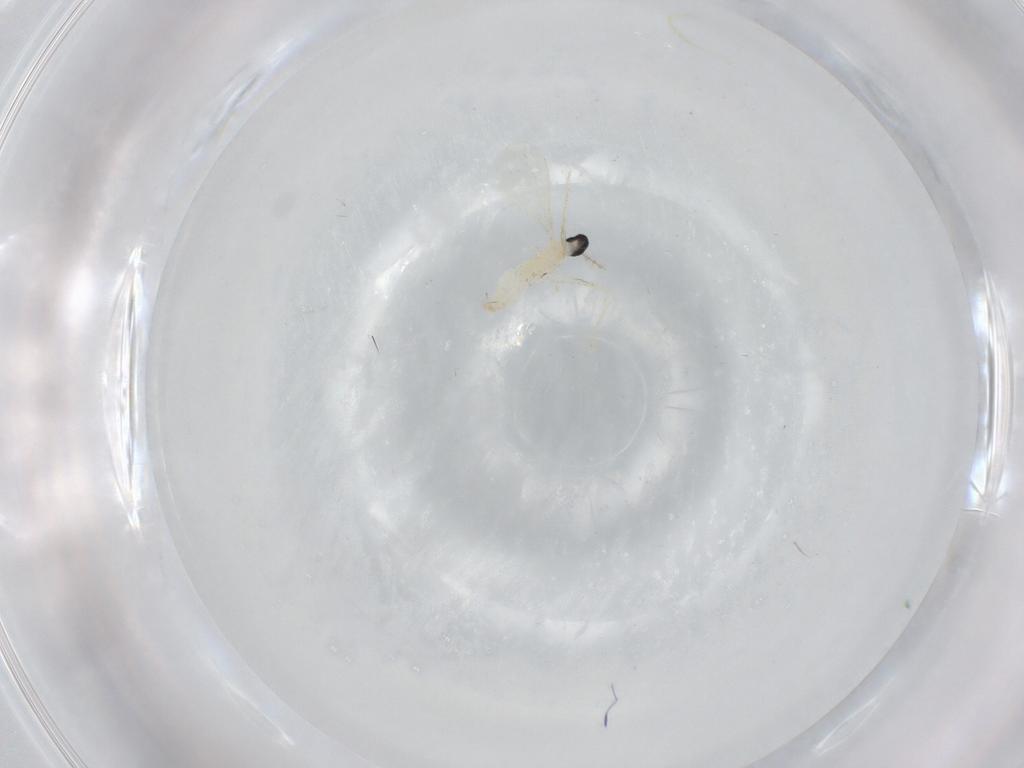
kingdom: Animalia
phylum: Arthropoda
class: Insecta
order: Diptera
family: Cecidomyiidae
